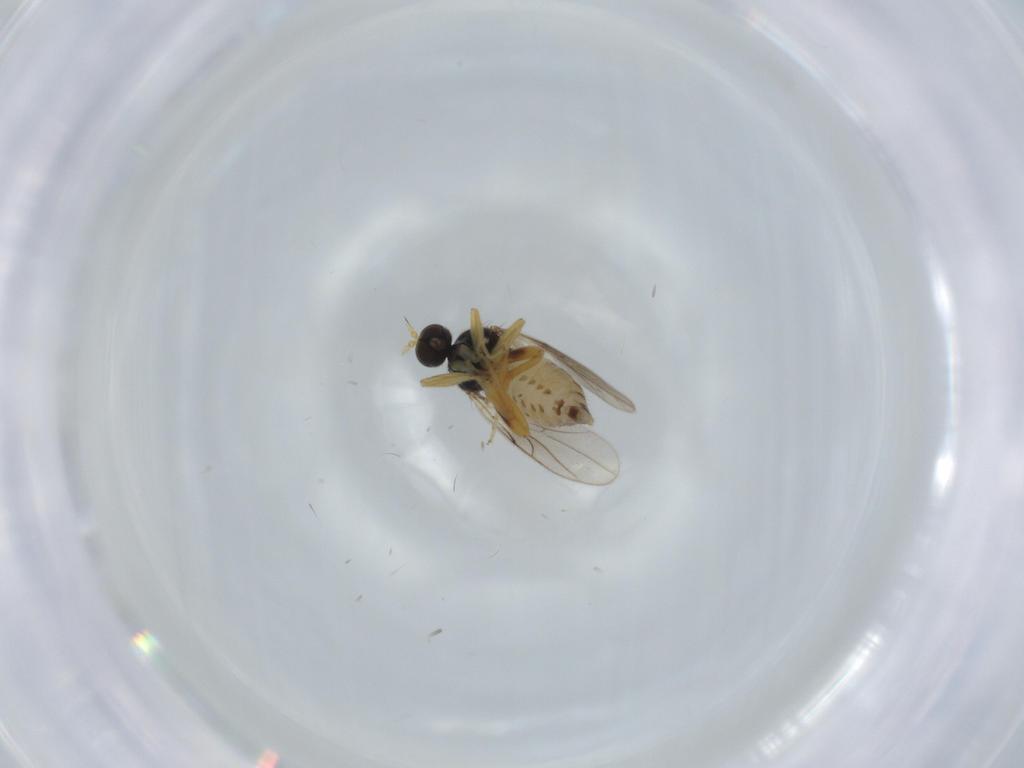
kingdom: Animalia
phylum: Arthropoda
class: Insecta
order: Diptera
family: Hybotidae
